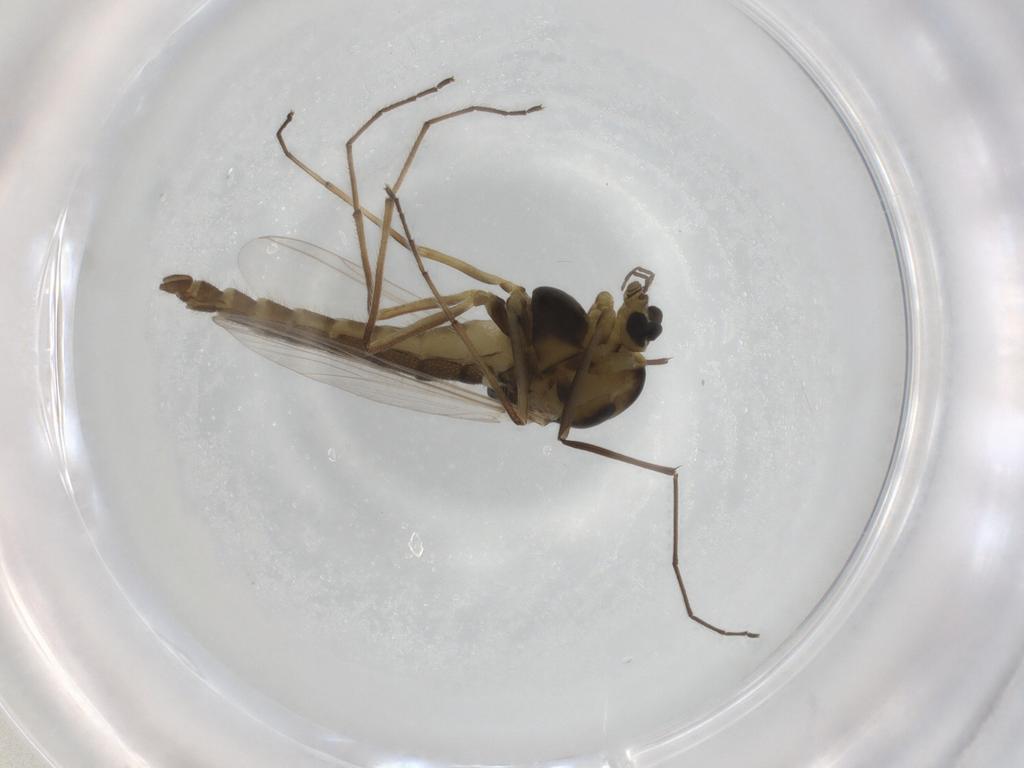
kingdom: Animalia
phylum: Arthropoda
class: Insecta
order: Diptera
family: Chironomidae
